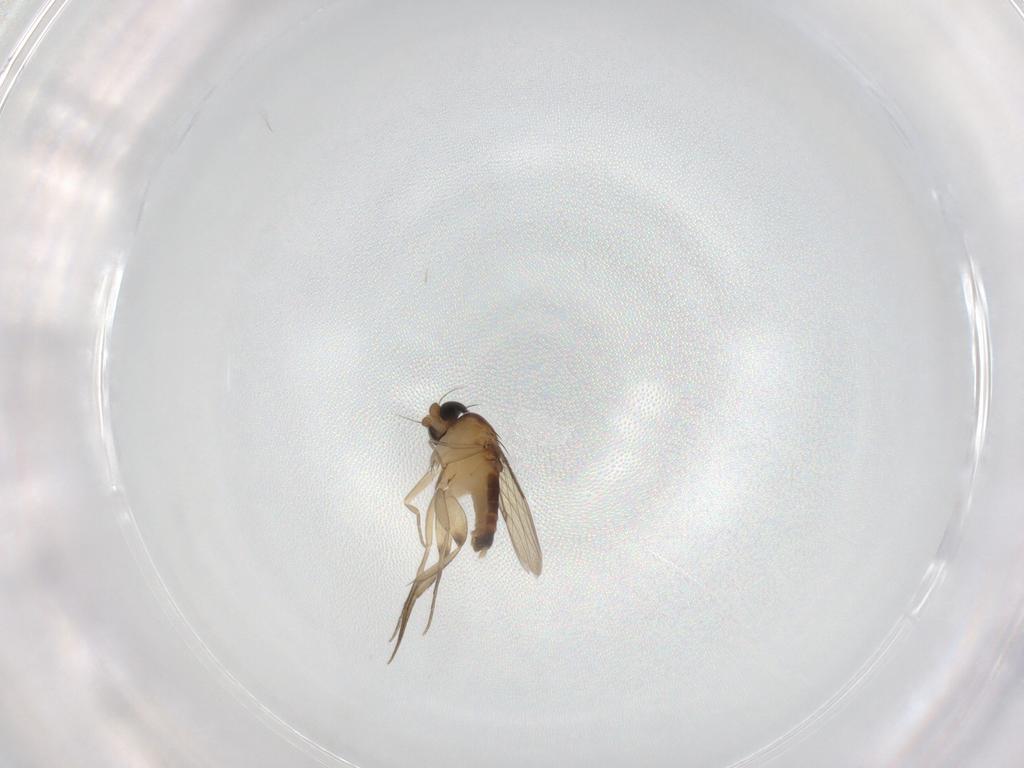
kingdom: Animalia
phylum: Arthropoda
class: Insecta
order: Diptera
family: Phoridae
